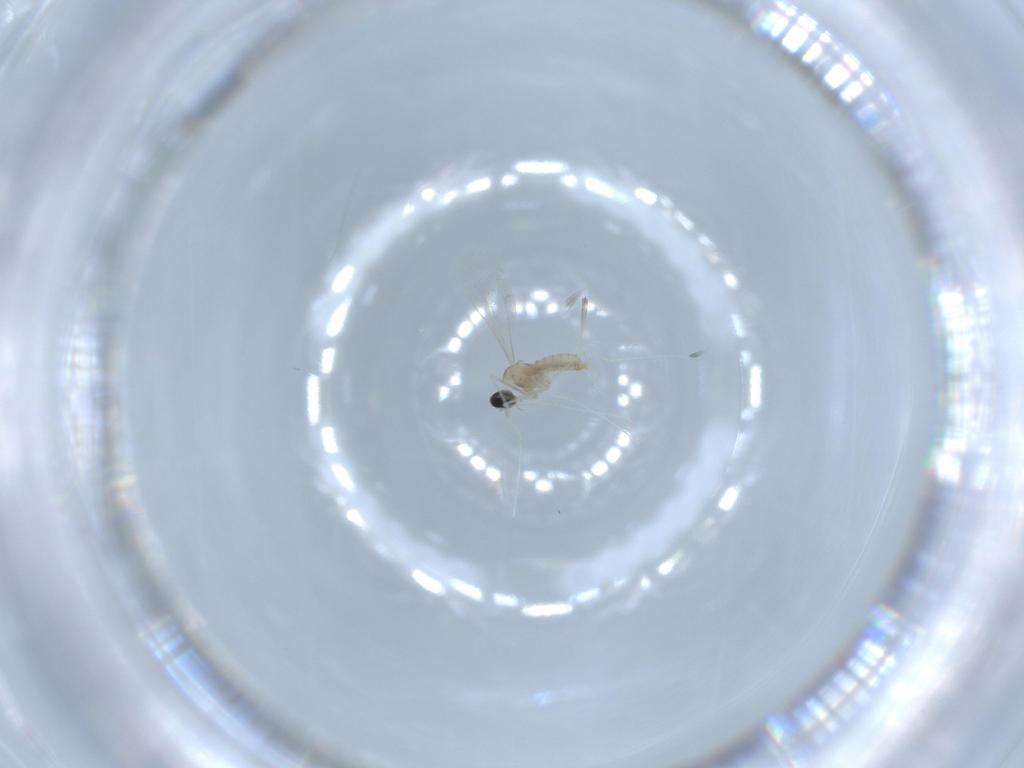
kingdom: Animalia
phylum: Arthropoda
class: Insecta
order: Diptera
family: Cecidomyiidae
